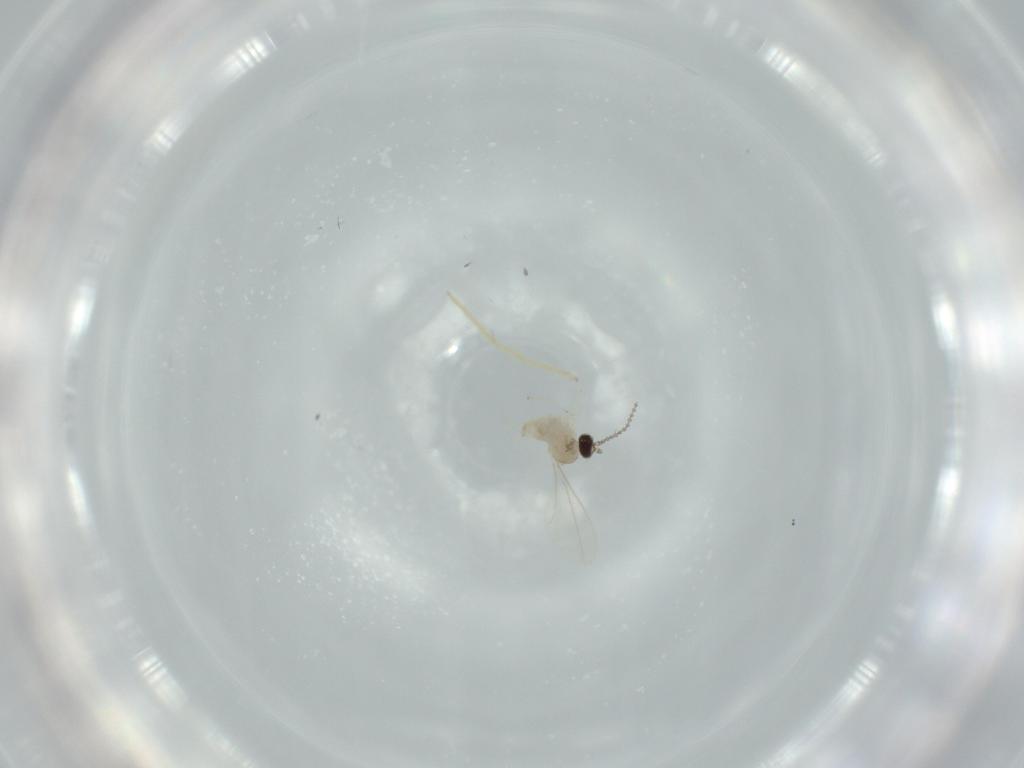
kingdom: Animalia
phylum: Arthropoda
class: Insecta
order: Diptera
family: Cecidomyiidae
